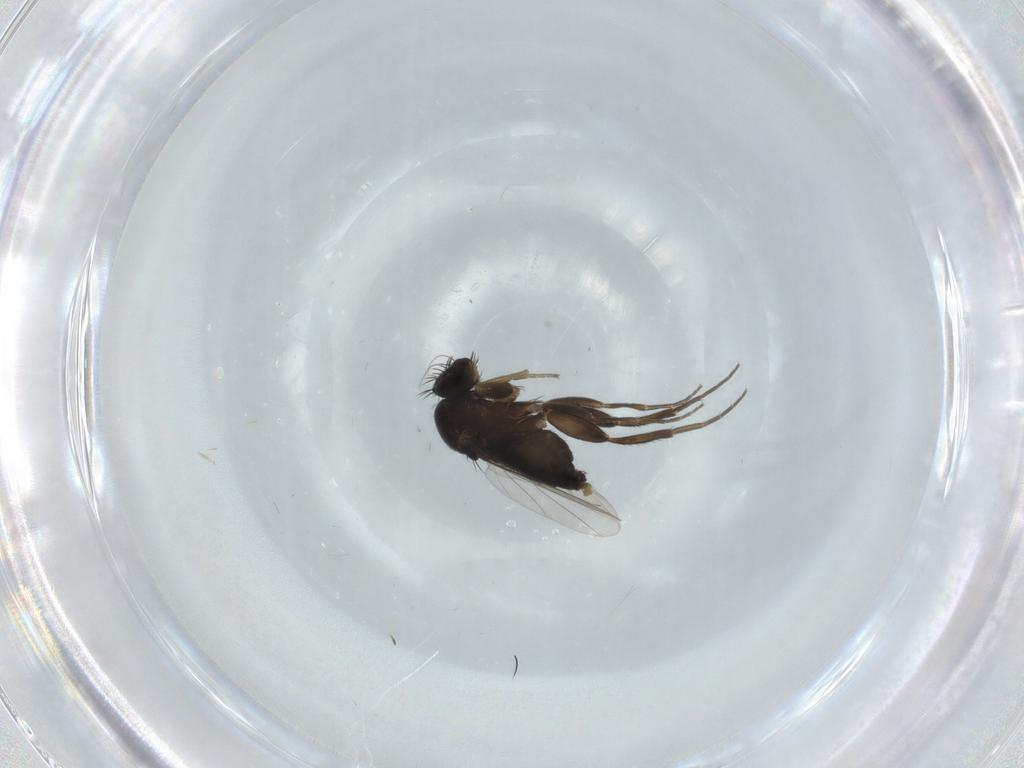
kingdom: Animalia
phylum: Arthropoda
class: Insecta
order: Diptera
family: Phoridae
